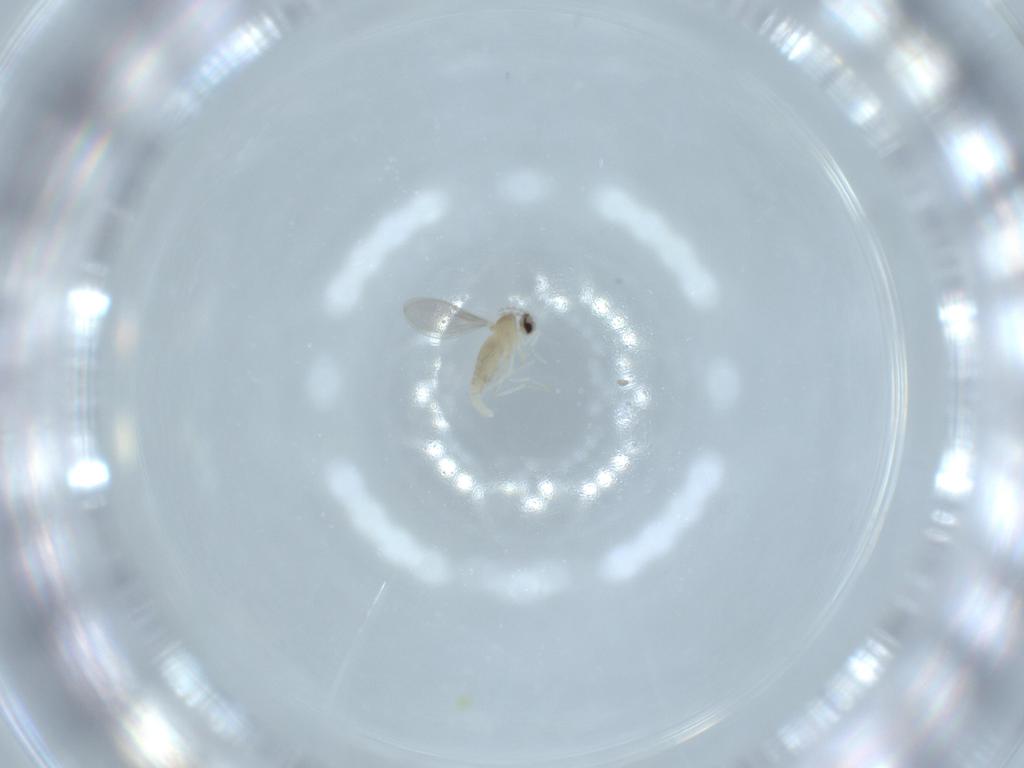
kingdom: Animalia
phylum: Arthropoda
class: Insecta
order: Diptera
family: Cecidomyiidae
